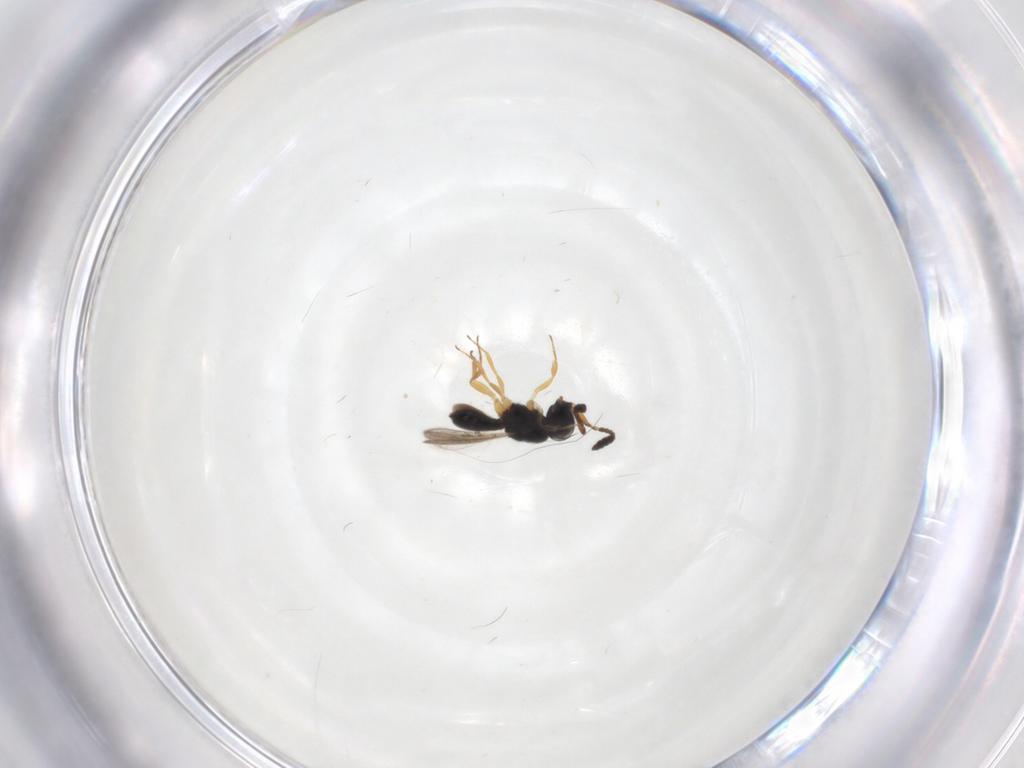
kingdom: Animalia
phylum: Arthropoda
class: Insecta
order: Hymenoptera
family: Scelionidae
